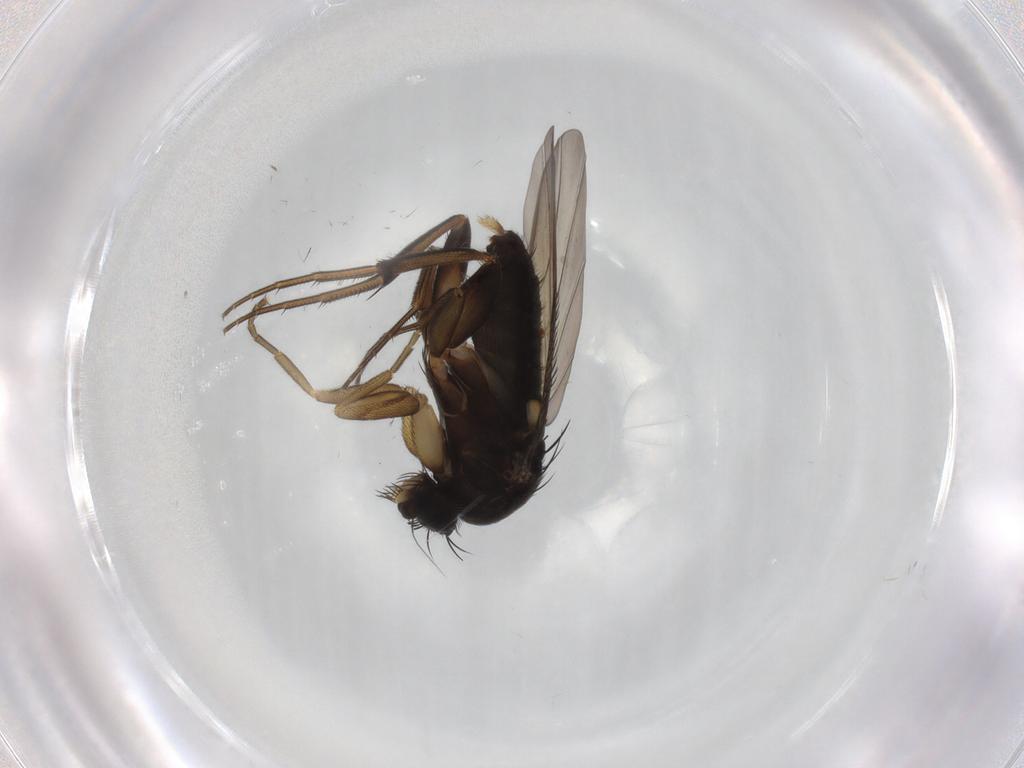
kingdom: Animalia
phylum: Arthropoda
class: Insecta
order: Diptera
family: Phoridae
